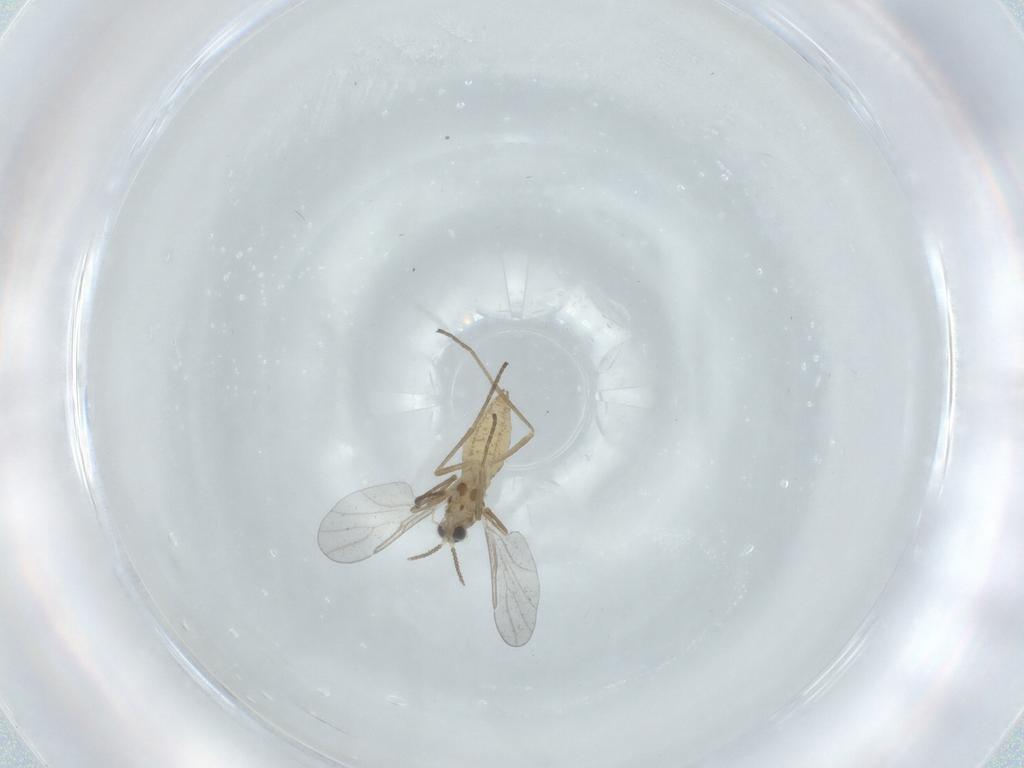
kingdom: Animalia
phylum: Arthropoda
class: Insecta
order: Diptera
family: Cecidomyiidae
